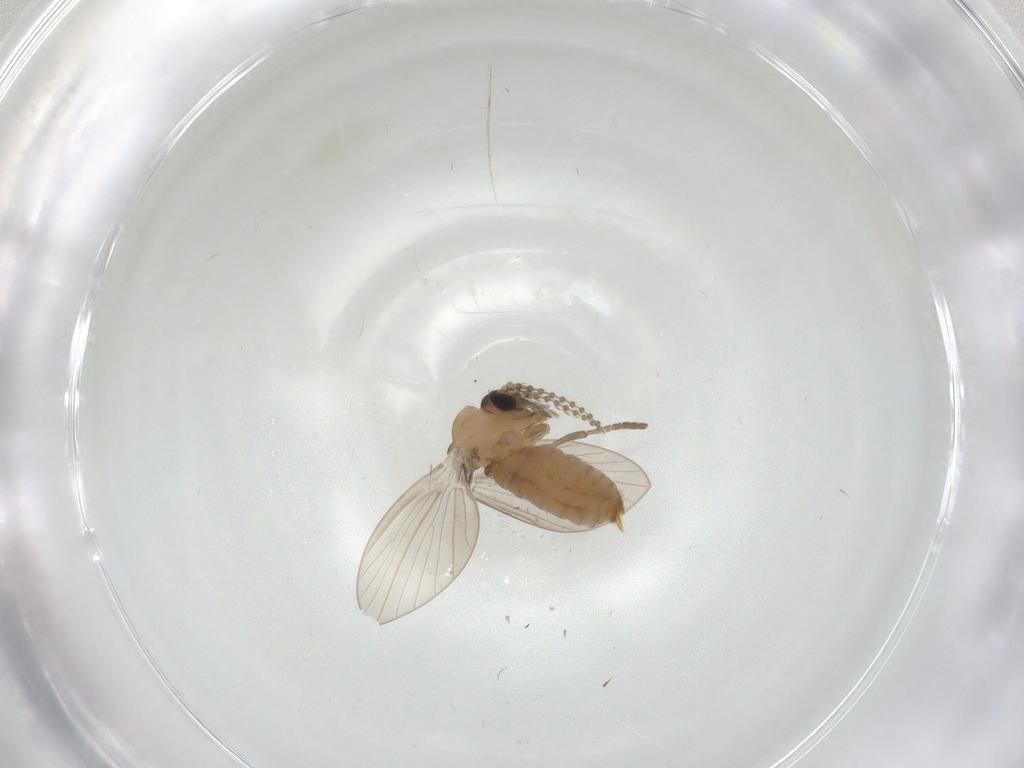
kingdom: Animalia
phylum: Arthropoda
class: Insecta
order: Diptera
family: Psychodidae
